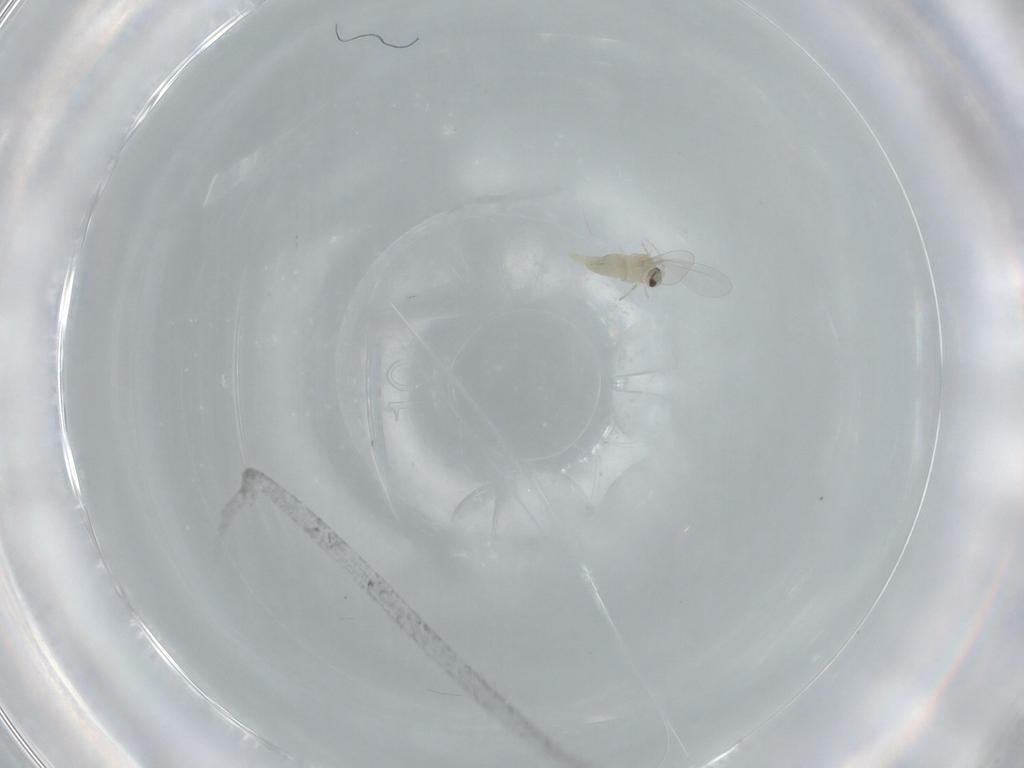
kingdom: Animalia
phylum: Arthropoda
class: Insecta
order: Diptera
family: Cecidomyiidae
